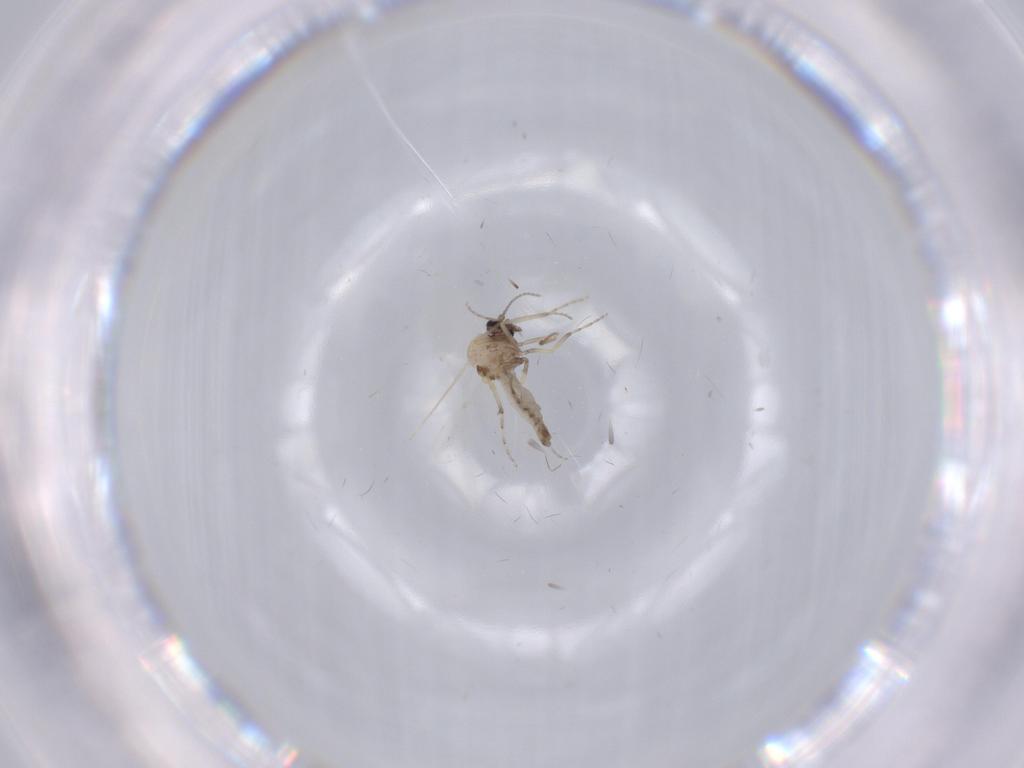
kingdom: Animalia
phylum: Arthropoda
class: Insecta
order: Diptera
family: Ceratopogonidae
